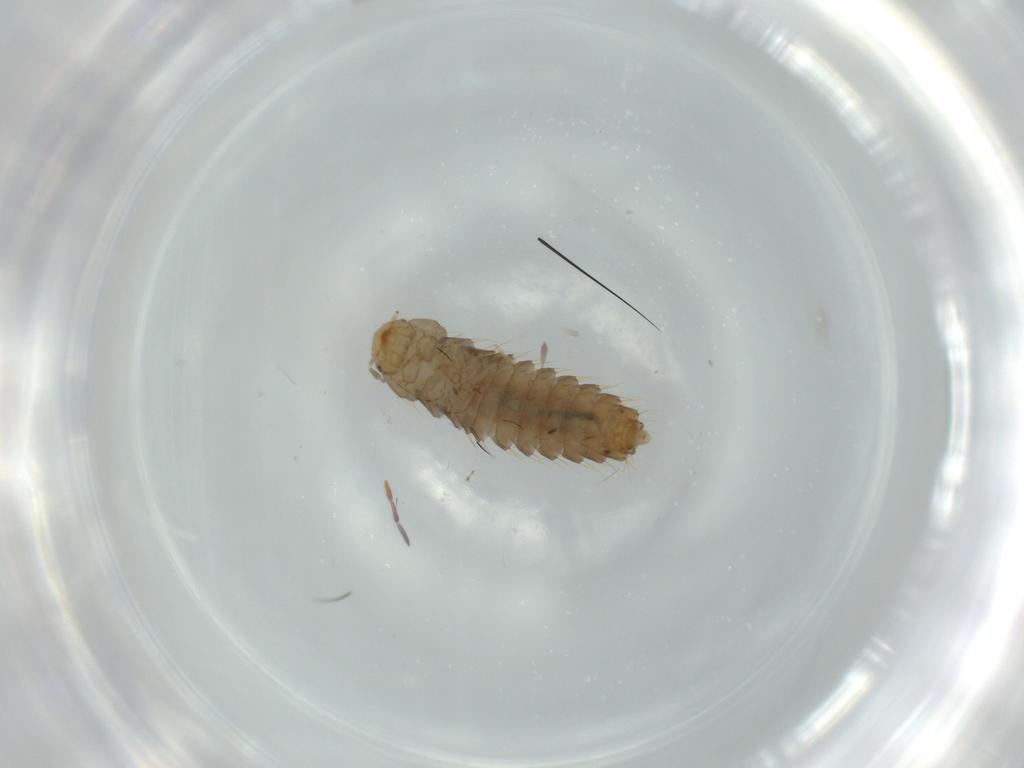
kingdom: Animalia
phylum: Arthropoda
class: Insecta
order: Coleoptera
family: Staphylinidae
